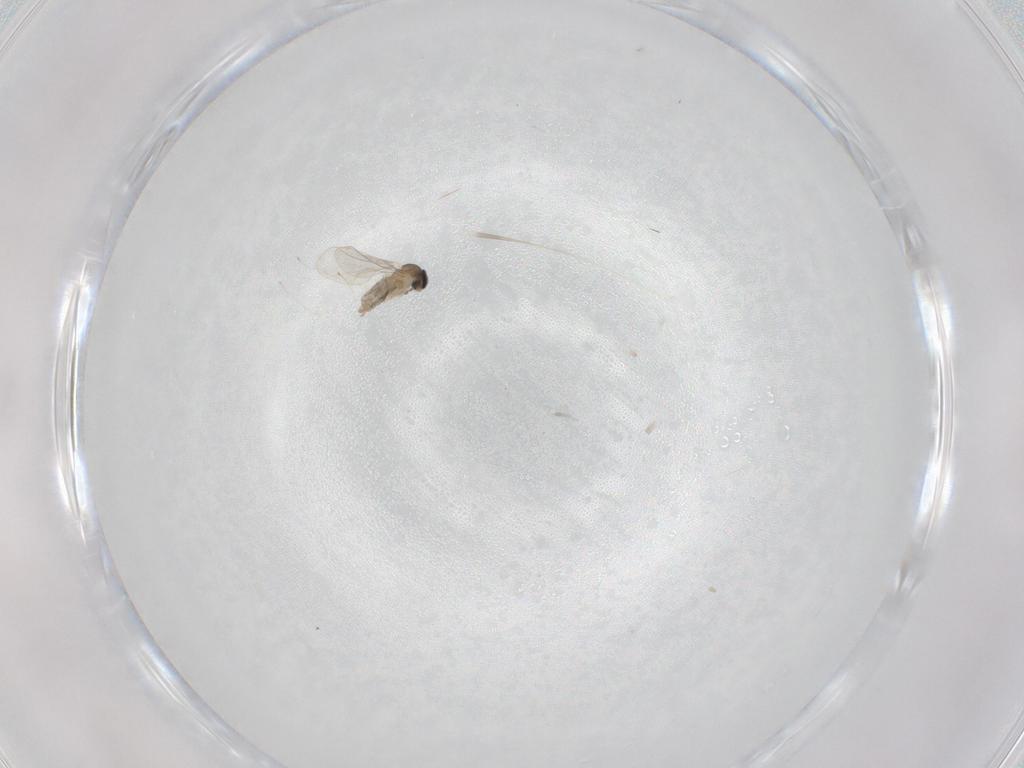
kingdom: Animalia
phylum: Arthropoda
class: Insecta
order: Diptera
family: Cecidomyiidae
